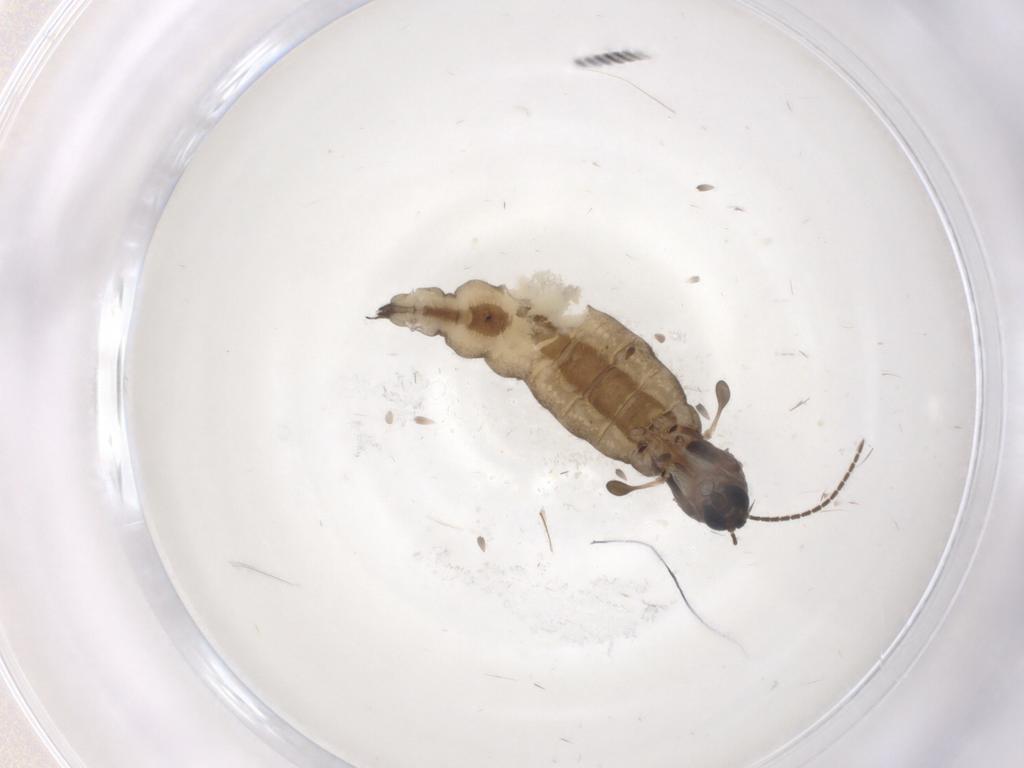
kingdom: Animalia
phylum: Arthropoda
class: Insecta
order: Diptera
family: Sciaridae
